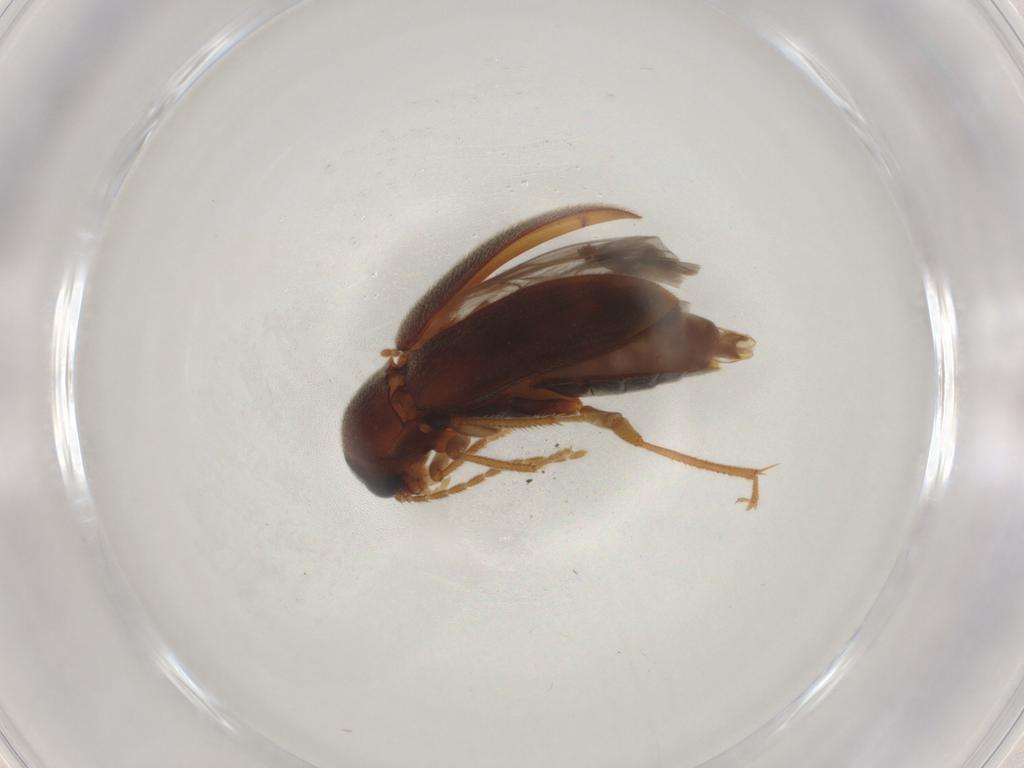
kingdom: Animalia
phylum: Arthropoda
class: Insecta
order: Coleoptera
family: Ptilodactylidae
